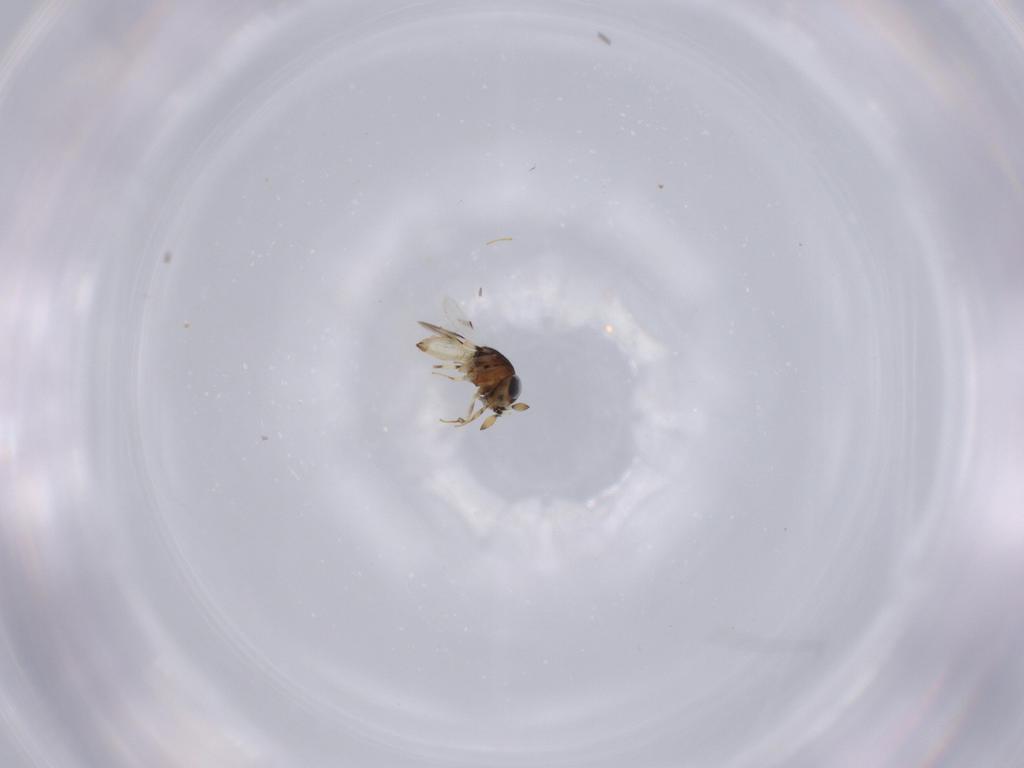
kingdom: Animalia
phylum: Arthropoda
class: Insecta
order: Hymenoptera
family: Scelionidae
